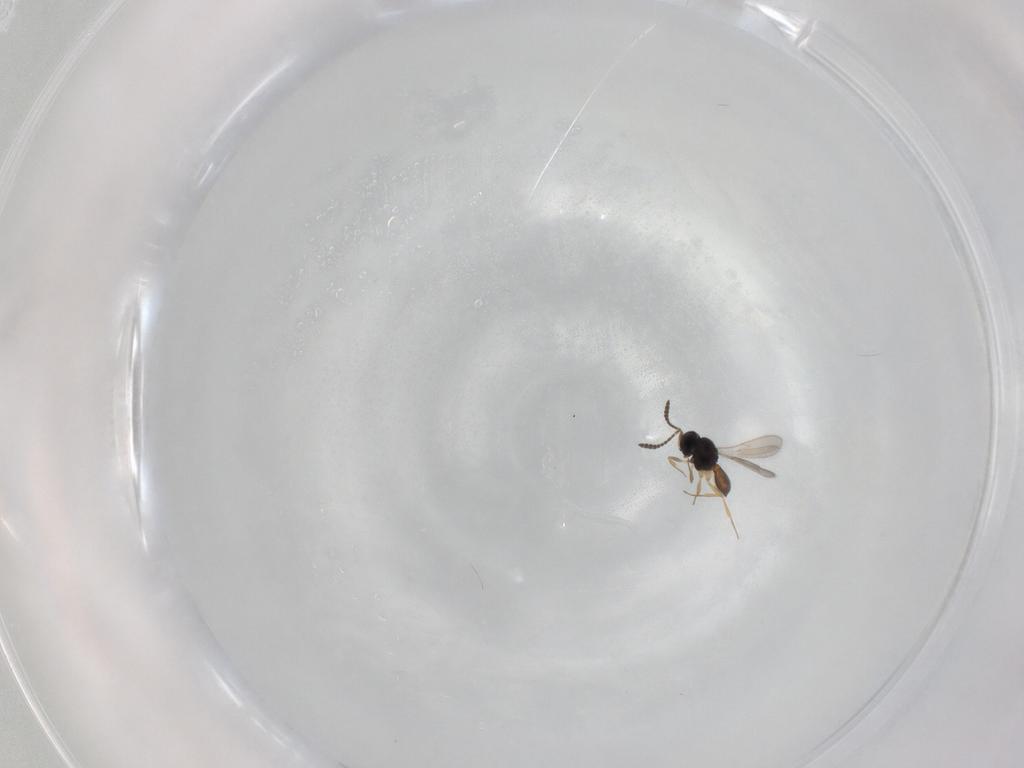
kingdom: Animalia
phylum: Arthropoda
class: Insecta
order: Hymenoptera
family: Scelionidae
